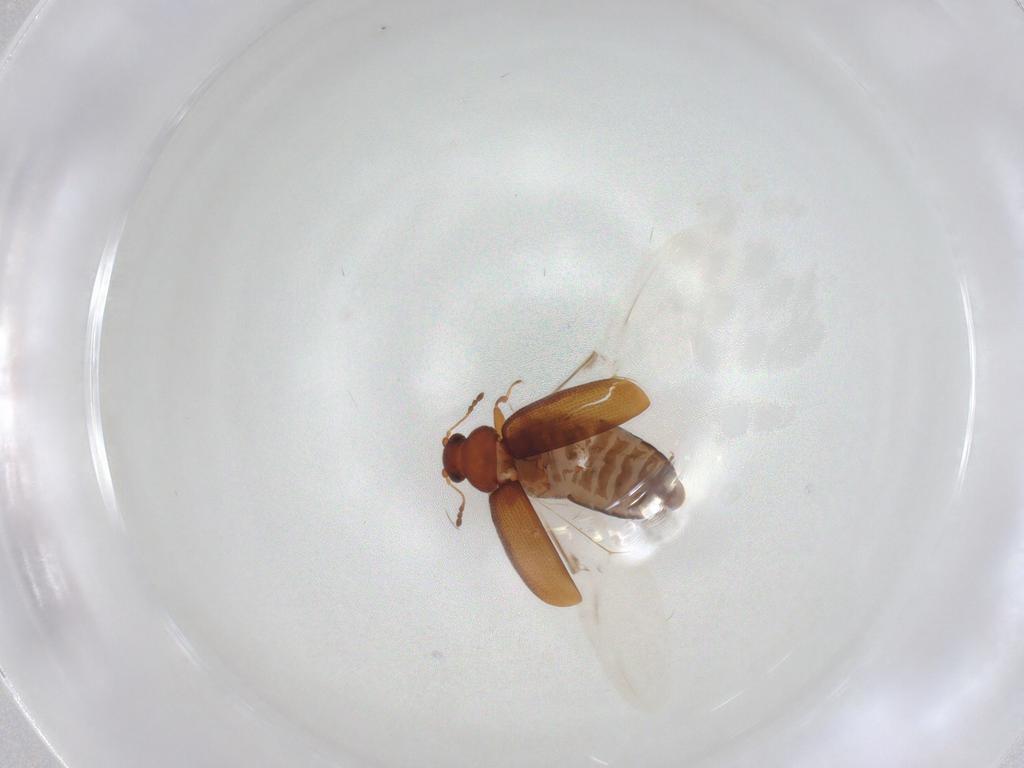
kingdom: Animalia
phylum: Arthropoda
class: Insecta
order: Coleoptera
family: Latridiidae
